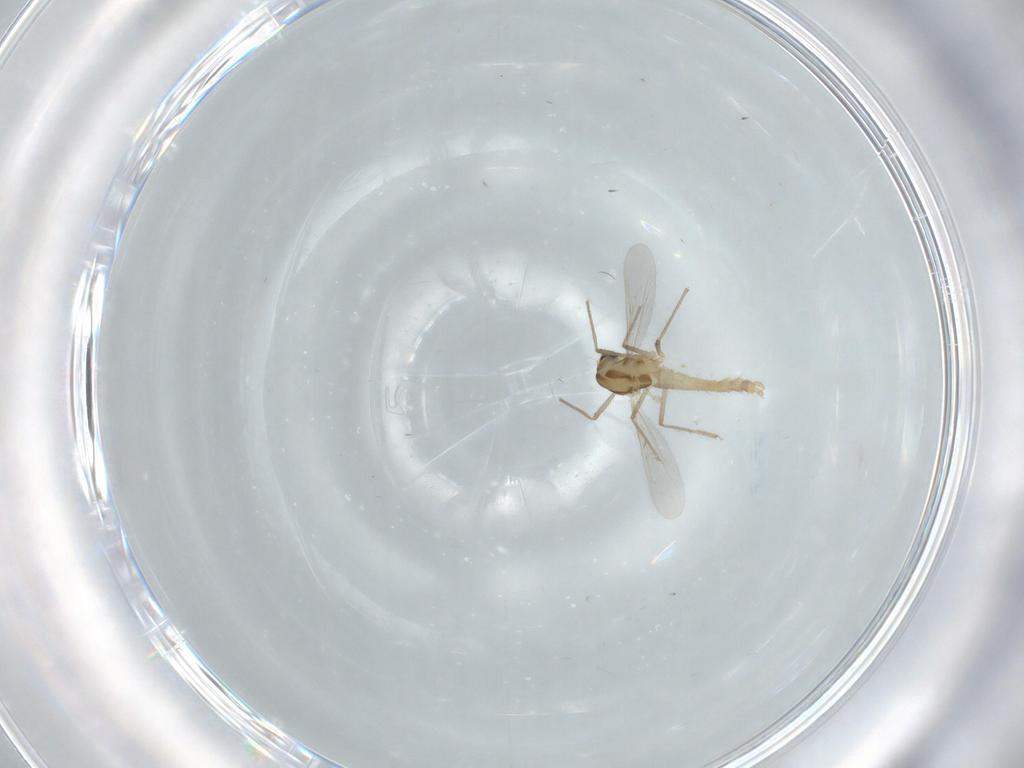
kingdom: Animalia
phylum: Arthropoda
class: Insecta
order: Diptera
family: Chironomidae
